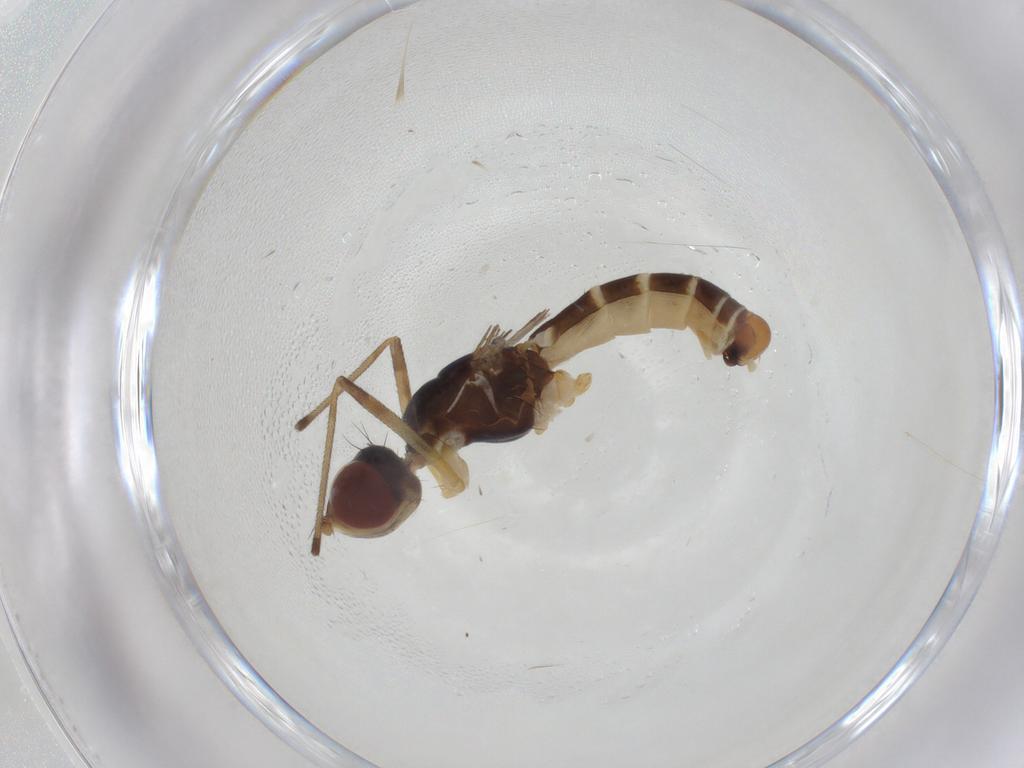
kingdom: Animalia
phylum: Arthropoda
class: Insecta
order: Diptera
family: Micropezidae
